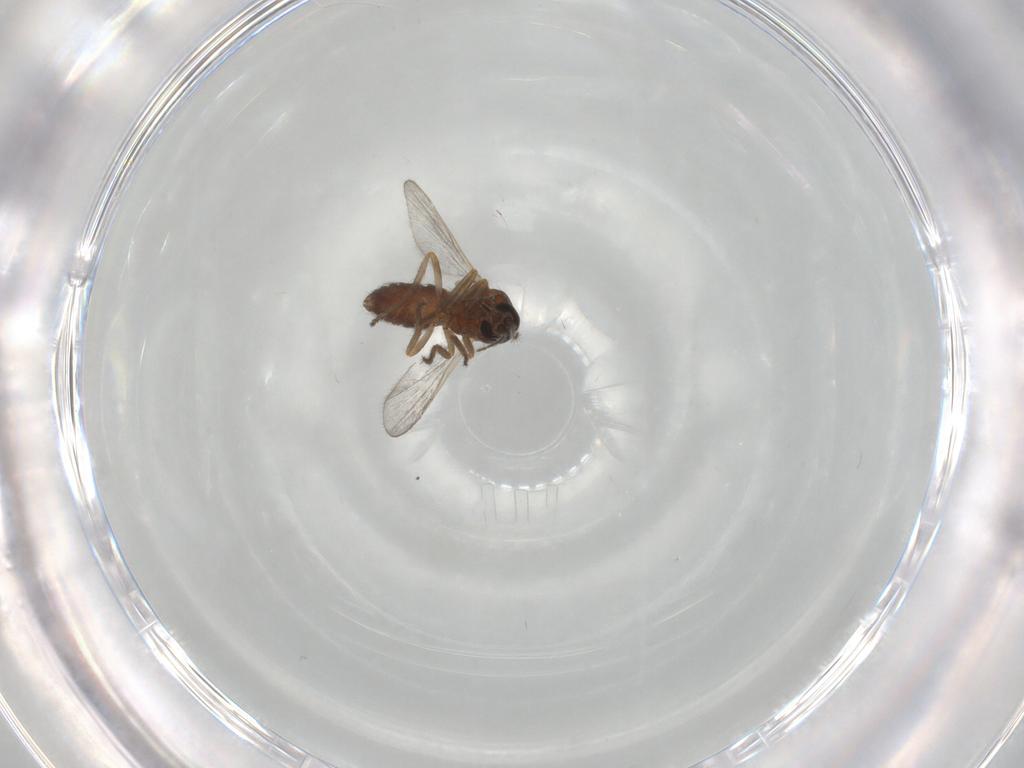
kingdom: Animalia
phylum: Arthropoda
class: Insecta
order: Diptera
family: Ceratopogonidae
